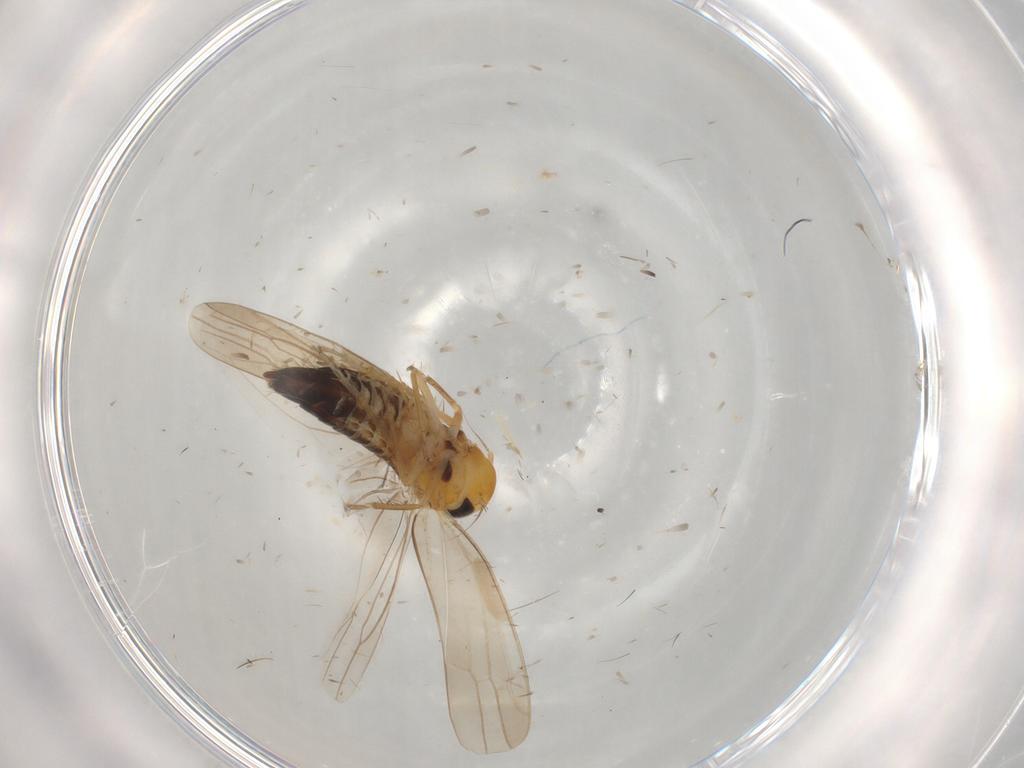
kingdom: Animalia
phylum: Arthropoda
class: Insecta
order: Hemiptera
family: Cicadellidae
